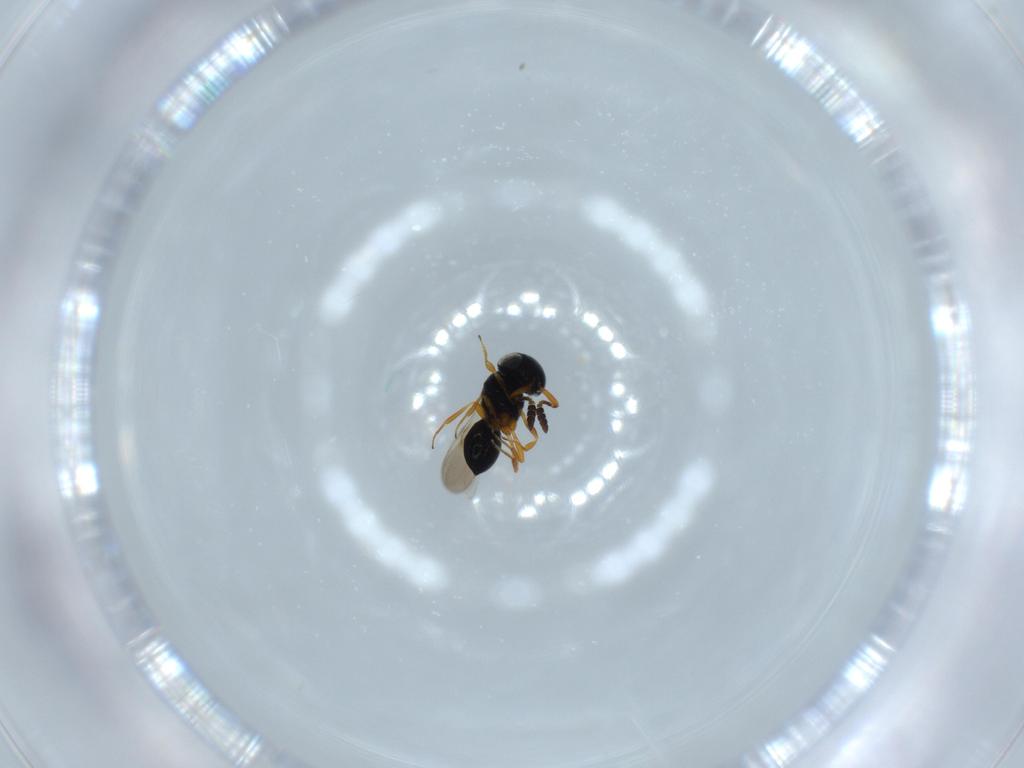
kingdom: Animalia
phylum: Arthropoda
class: Insecta
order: Hymenoptera
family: Scelionidae
